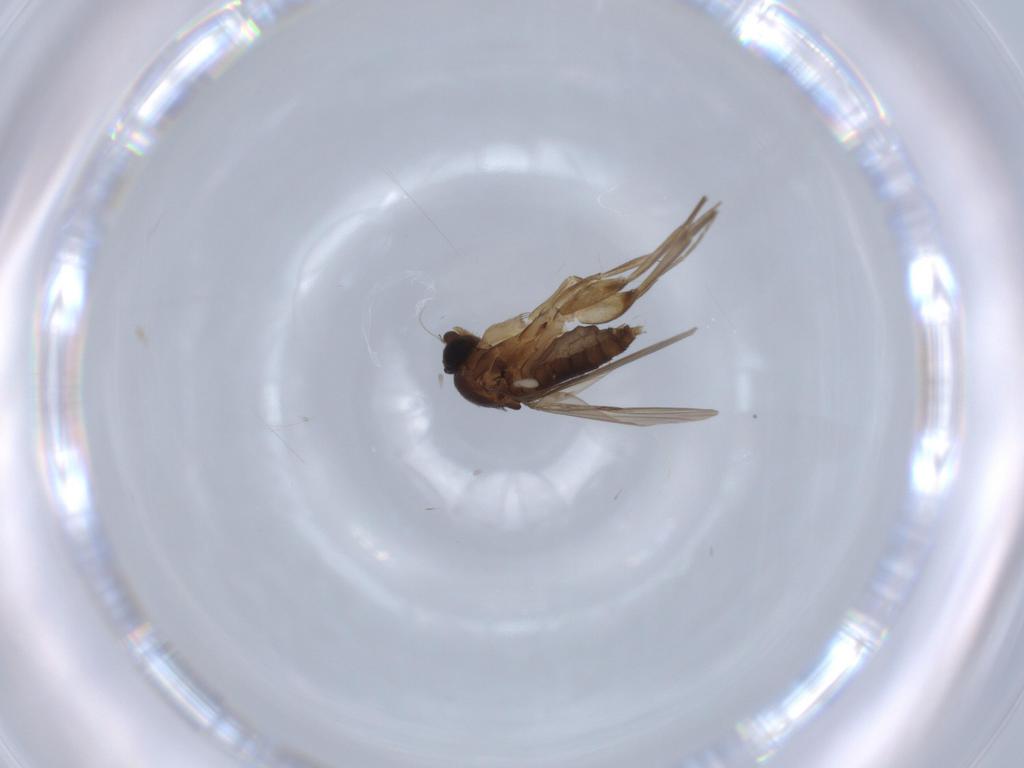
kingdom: Animalia
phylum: Arthropoda
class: Insecta
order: Diptera
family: Phoridae
